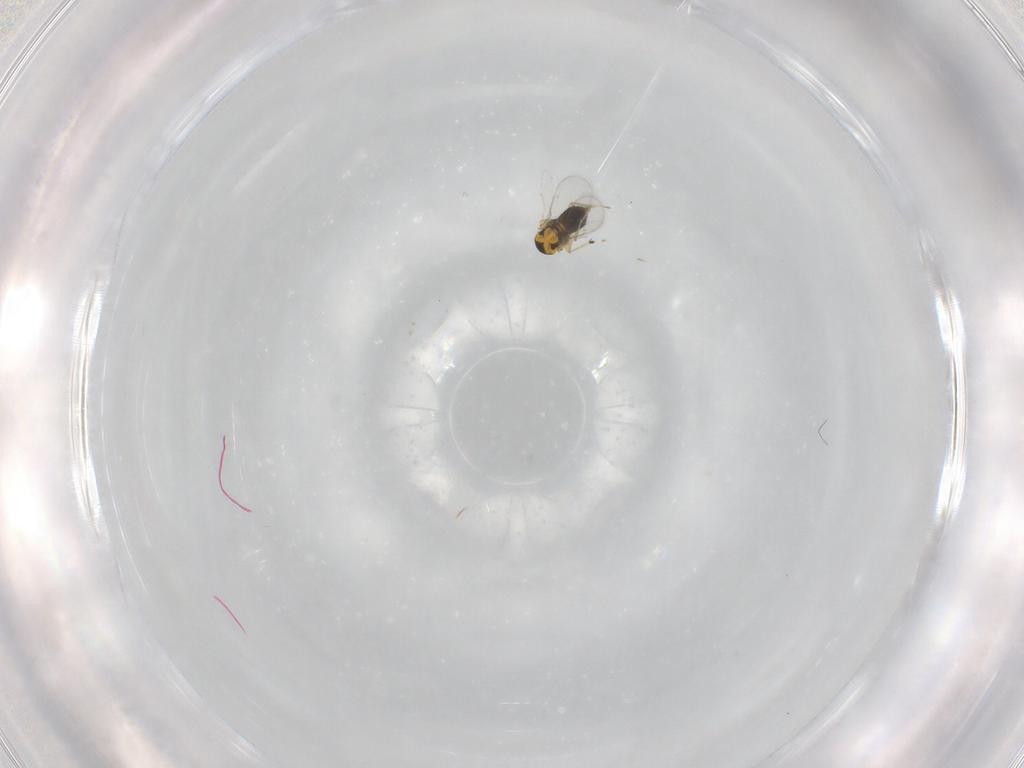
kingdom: Animalia
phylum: Arthropoda
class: Insecta
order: Hymenoptera
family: Aphelinidae
